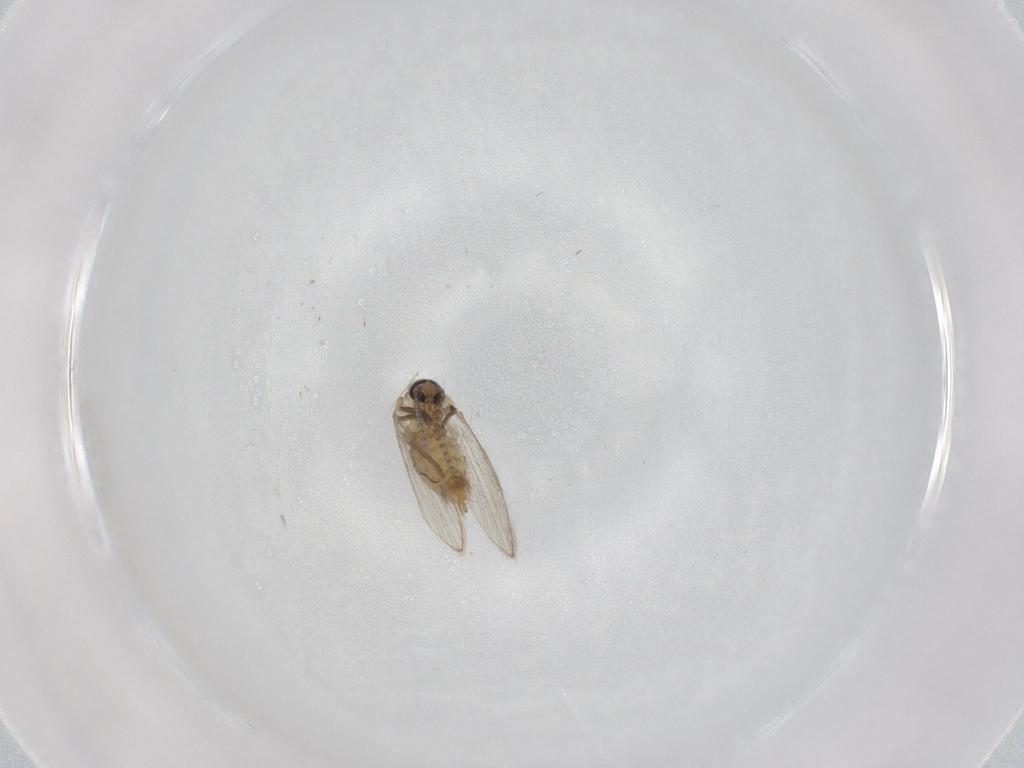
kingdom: Animalia
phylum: Arthropoda
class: Insecta
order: Diptera
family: Psychodidae
